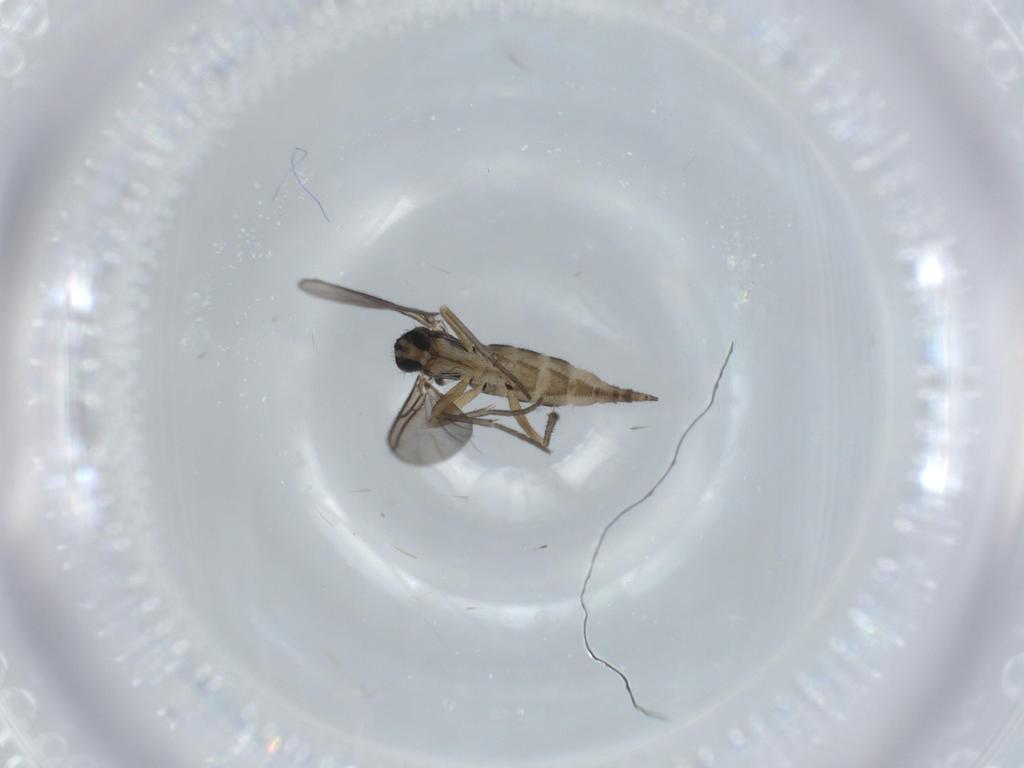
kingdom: Animalia
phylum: Arthropoda
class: Insecta
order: Diptera
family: Sciaridae
